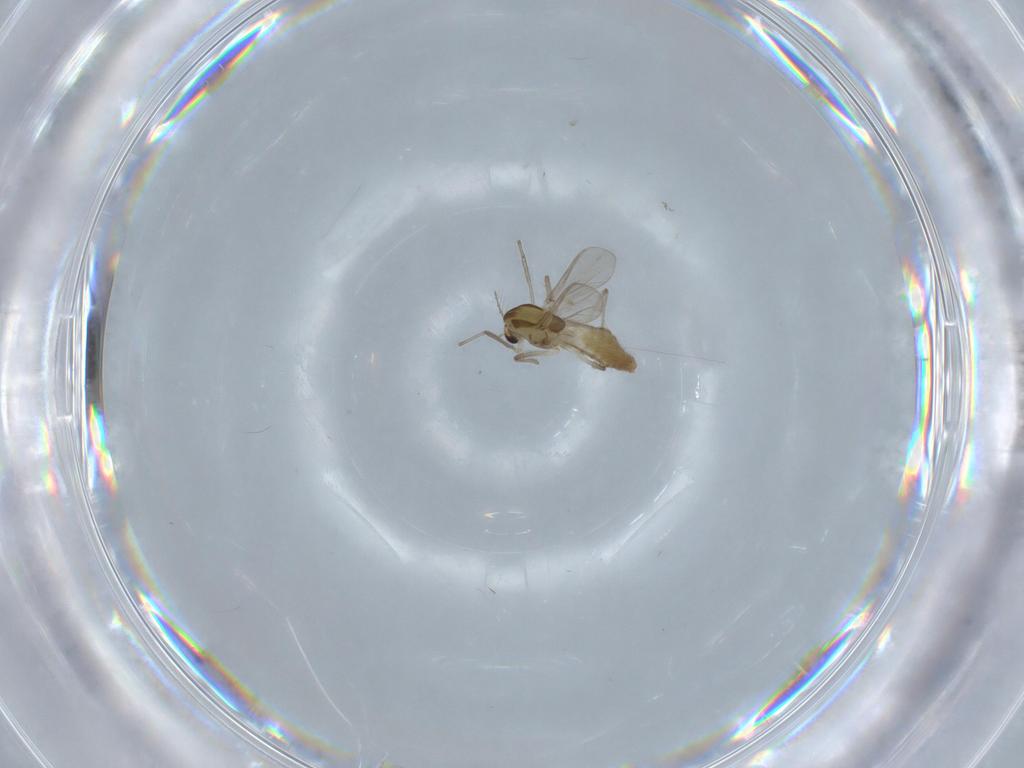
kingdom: Animalia
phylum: Arthropoda
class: Insecta
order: Diptera
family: Chironomidae
